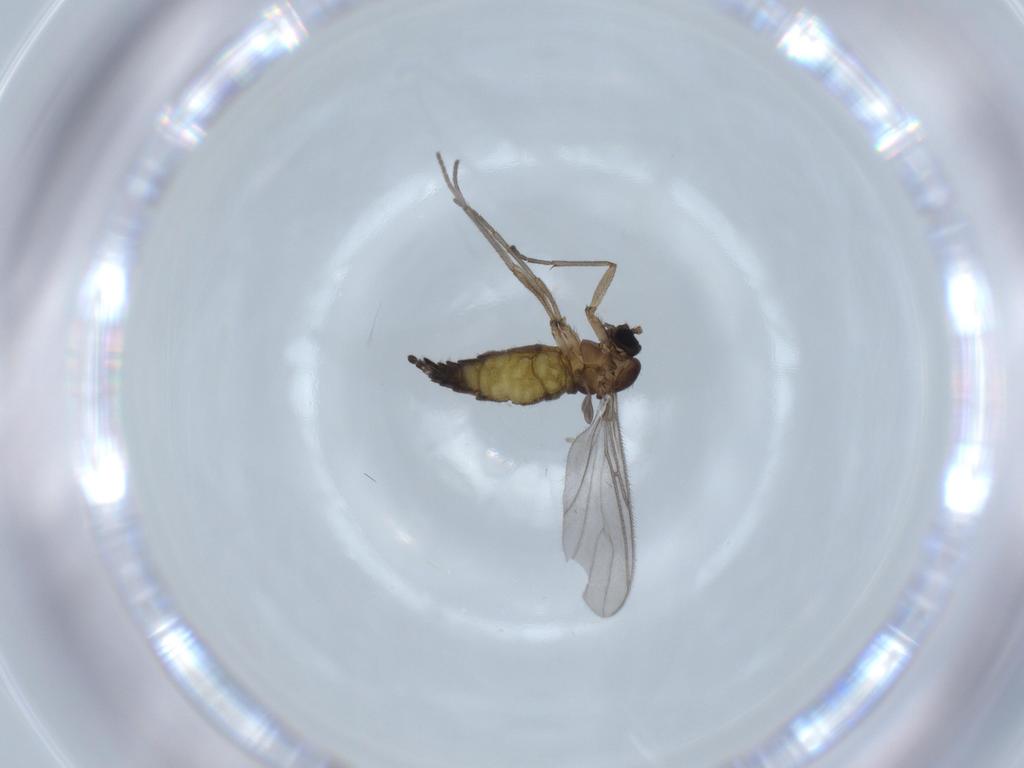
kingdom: Animalia
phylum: Arthropoda
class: Insecta
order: Diptera
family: Sciaridae
